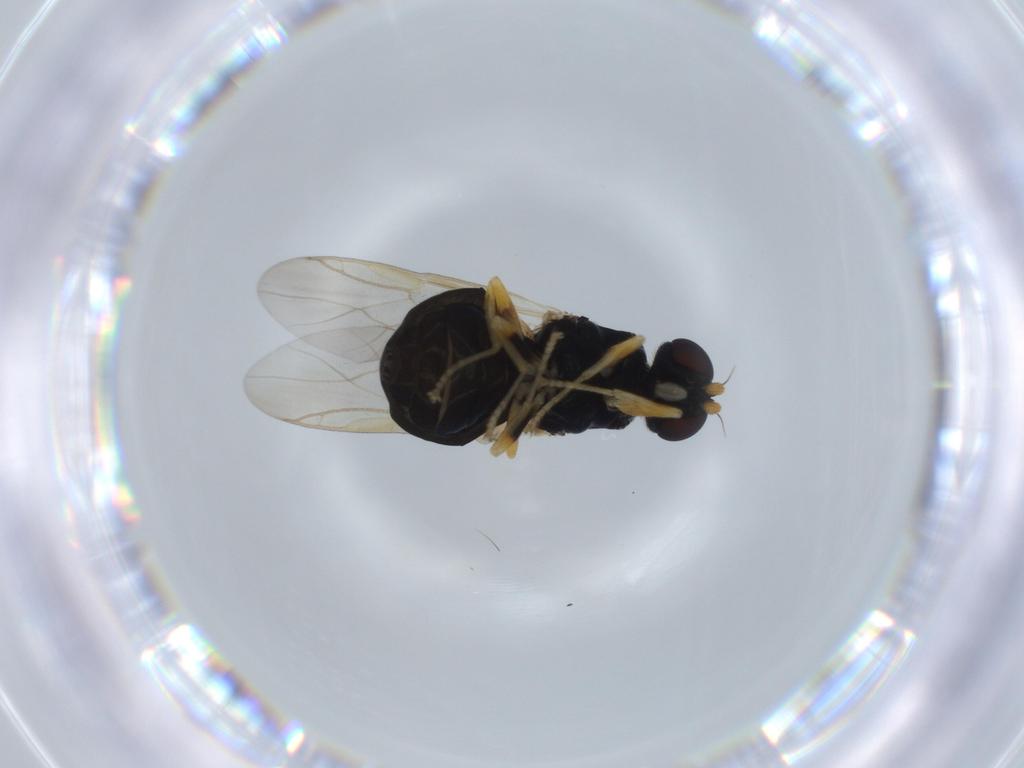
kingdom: Animalia
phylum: Arthropoda
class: Insecta
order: Diptera
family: Stratiomyidae
